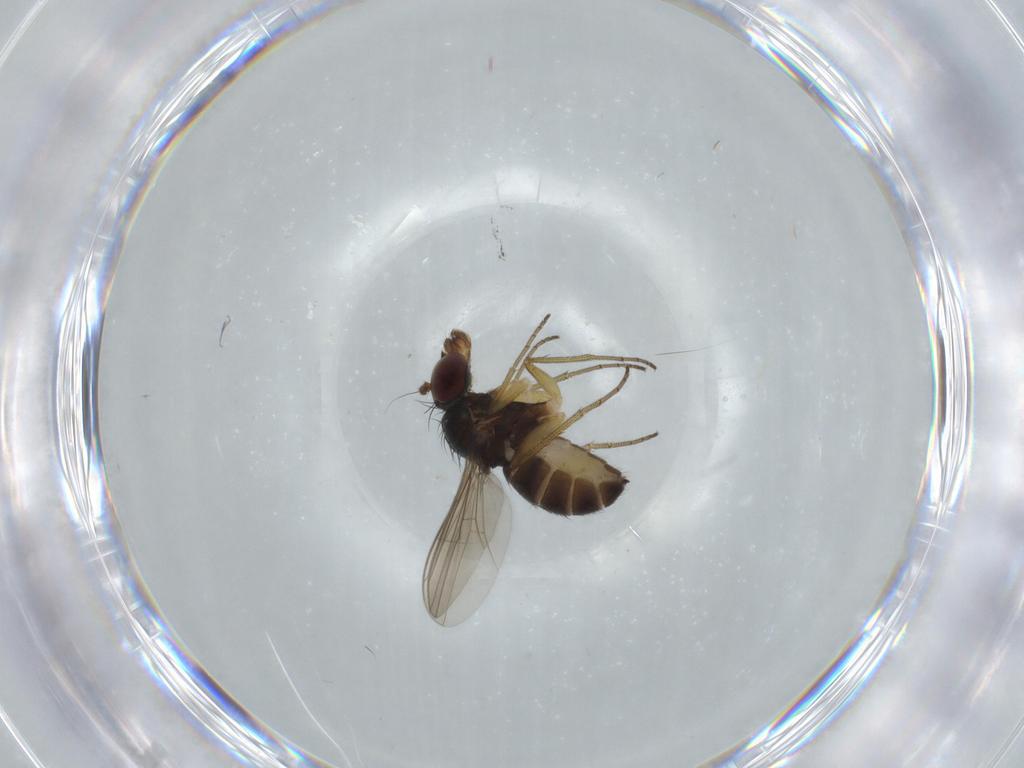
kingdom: Animalia
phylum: Arthropoda
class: Insecta
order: Diptera
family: Dolichopodidae
